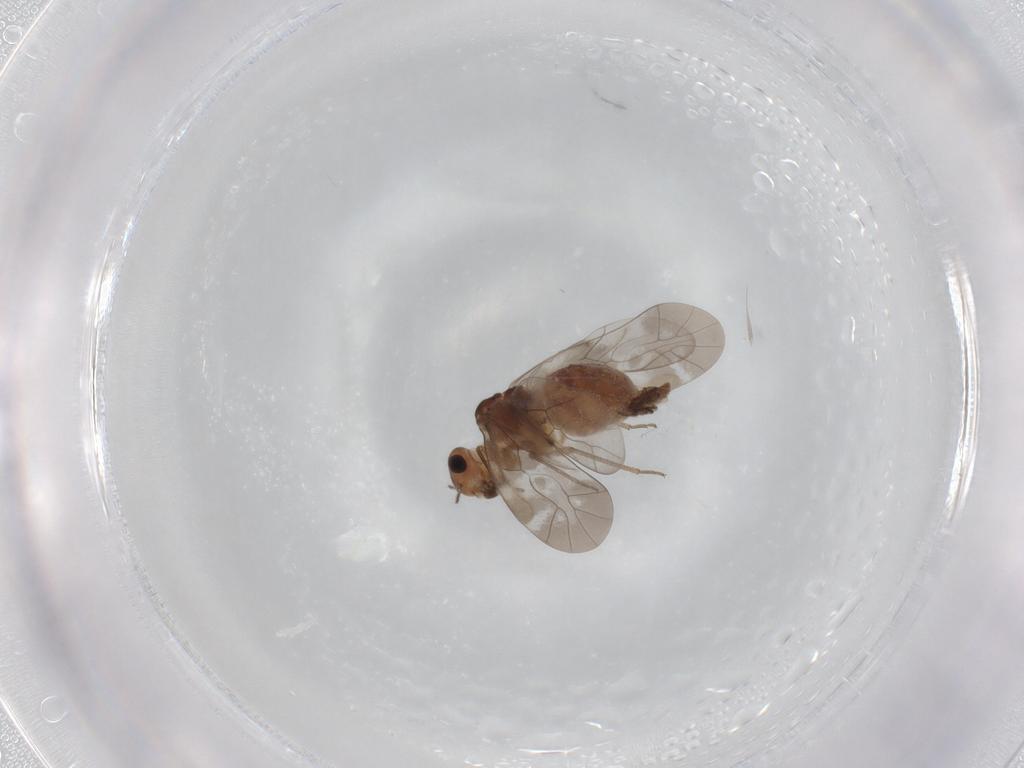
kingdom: Animalia
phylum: Arthropoda
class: Insecta
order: Psocodea
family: Peripsocidae
